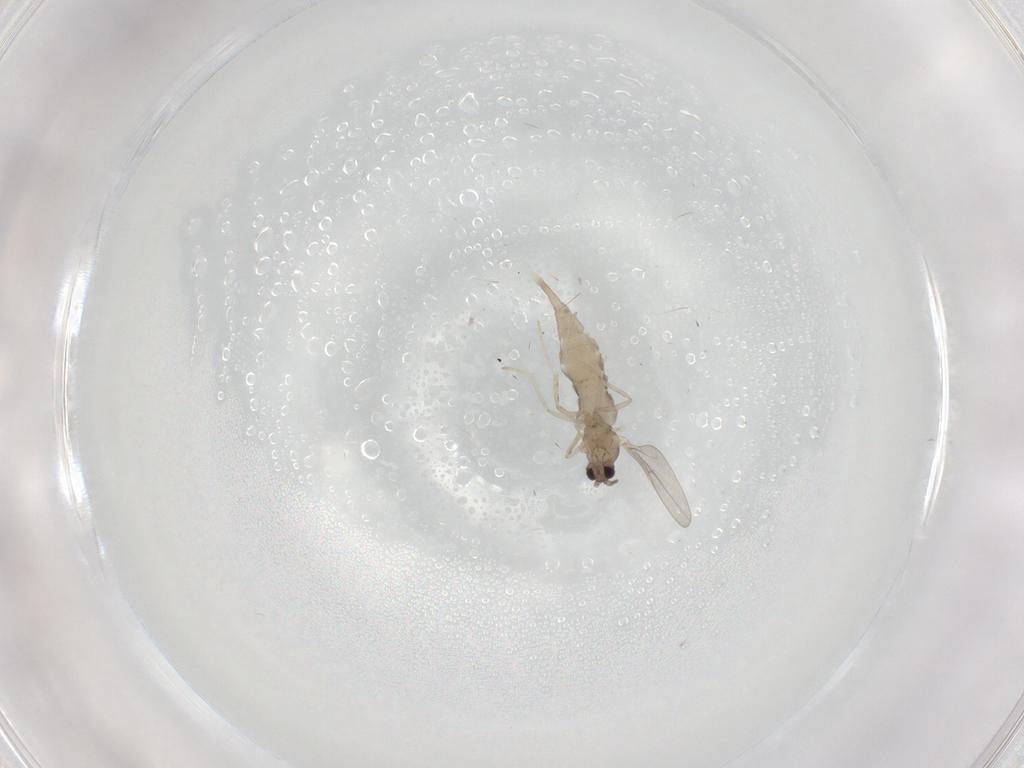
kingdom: Animalia
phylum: Arthropoda
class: Insecta
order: Diptera
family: Cecidomyiidae
